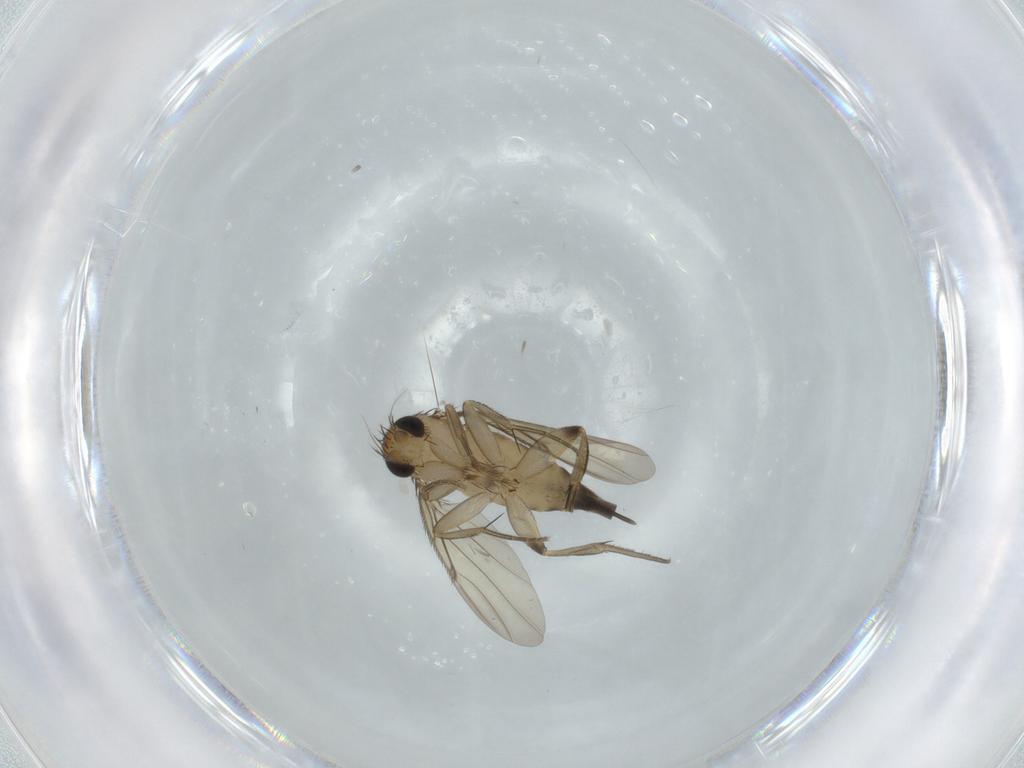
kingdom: Animalia
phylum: Arthropoda
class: Insecta
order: Diptera
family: Phoridae
